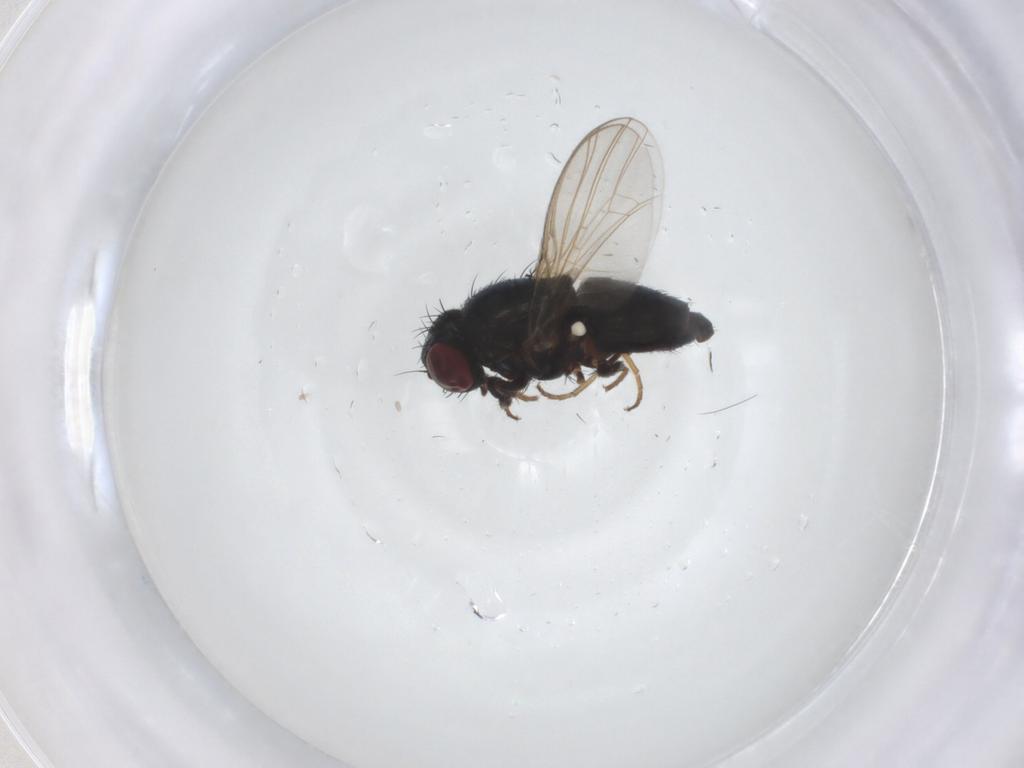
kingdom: Animalia
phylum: Arthropoda
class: Insecta
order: Diptera
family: Carnidae
